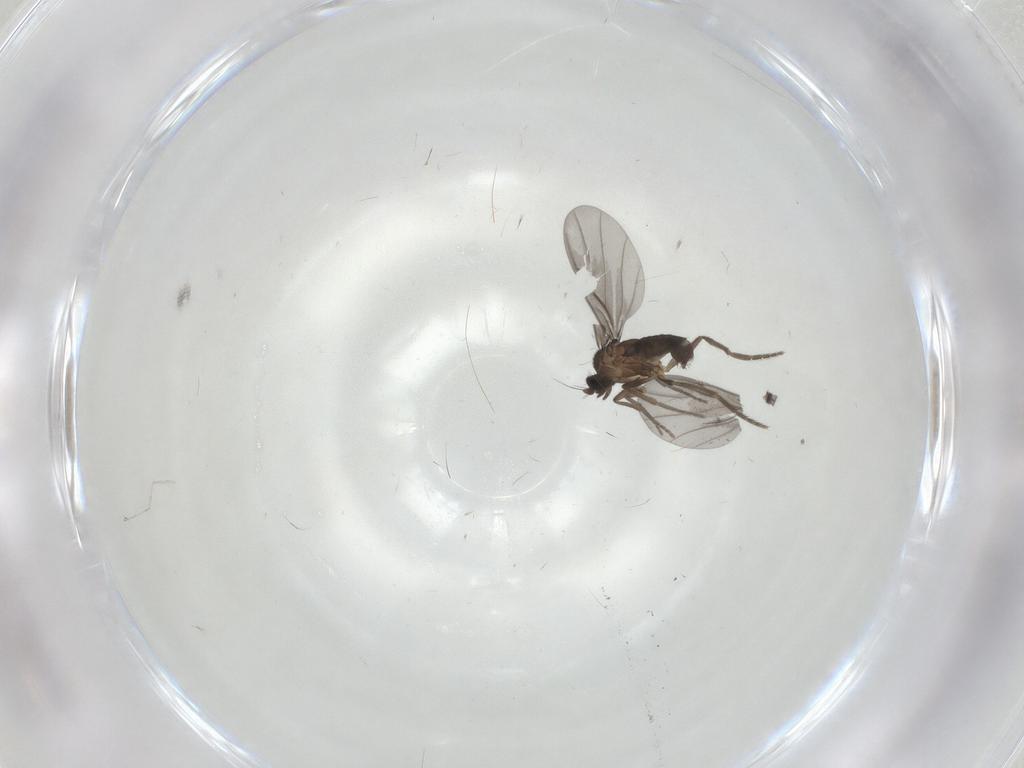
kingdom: Animalia
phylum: Arthropoda
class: Insecta
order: Diptera
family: Phoridae
